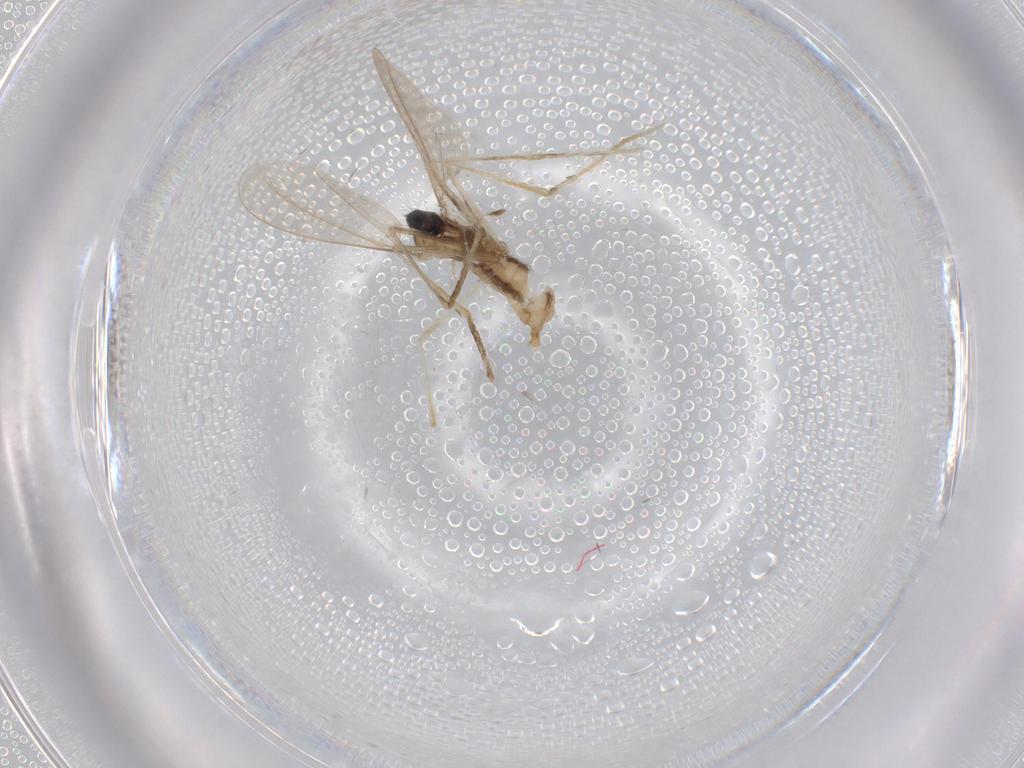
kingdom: Animalia
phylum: Arthropoda
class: Insecta
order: Diptera
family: Cecidomyiidae
